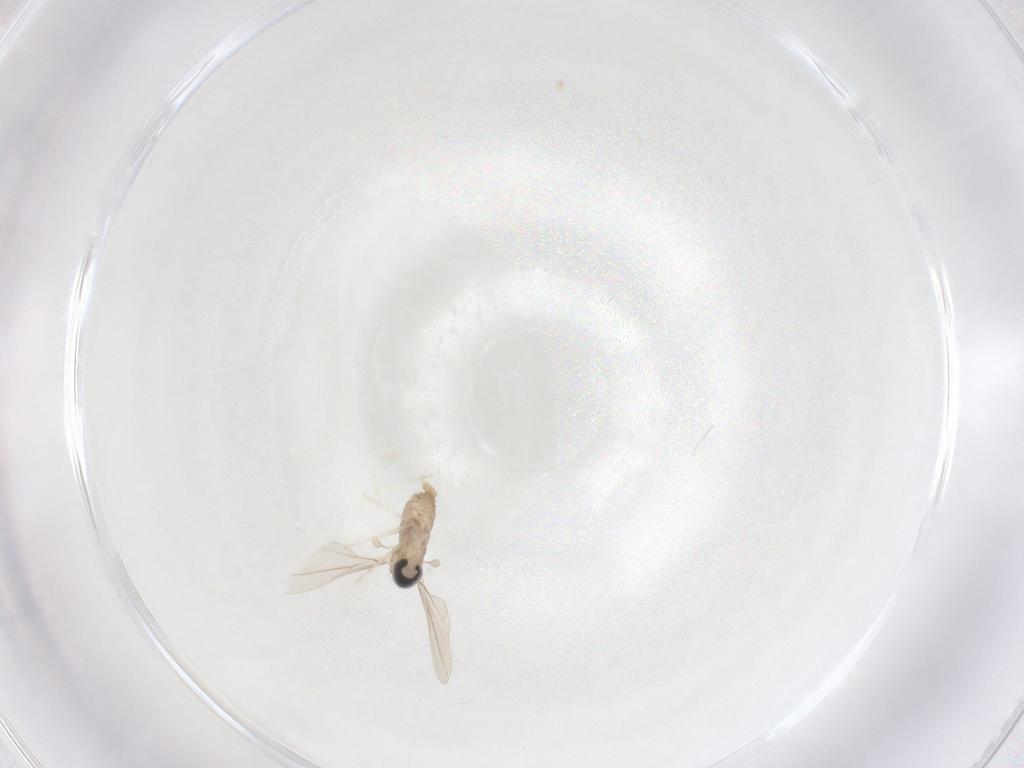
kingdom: Animalia
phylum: Arthropoda
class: Insecta
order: Diptera
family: Cecidomyiidae
